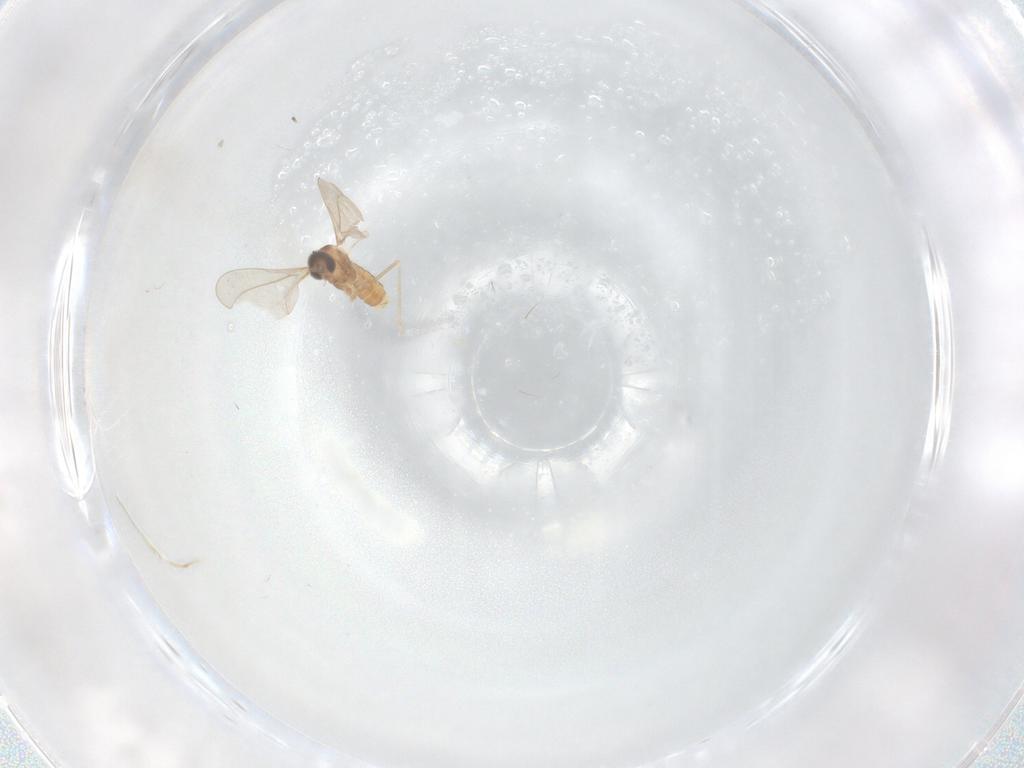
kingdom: Animalia
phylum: Arthropoda
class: Insecta
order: Diptera
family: Cecidomyiidae
